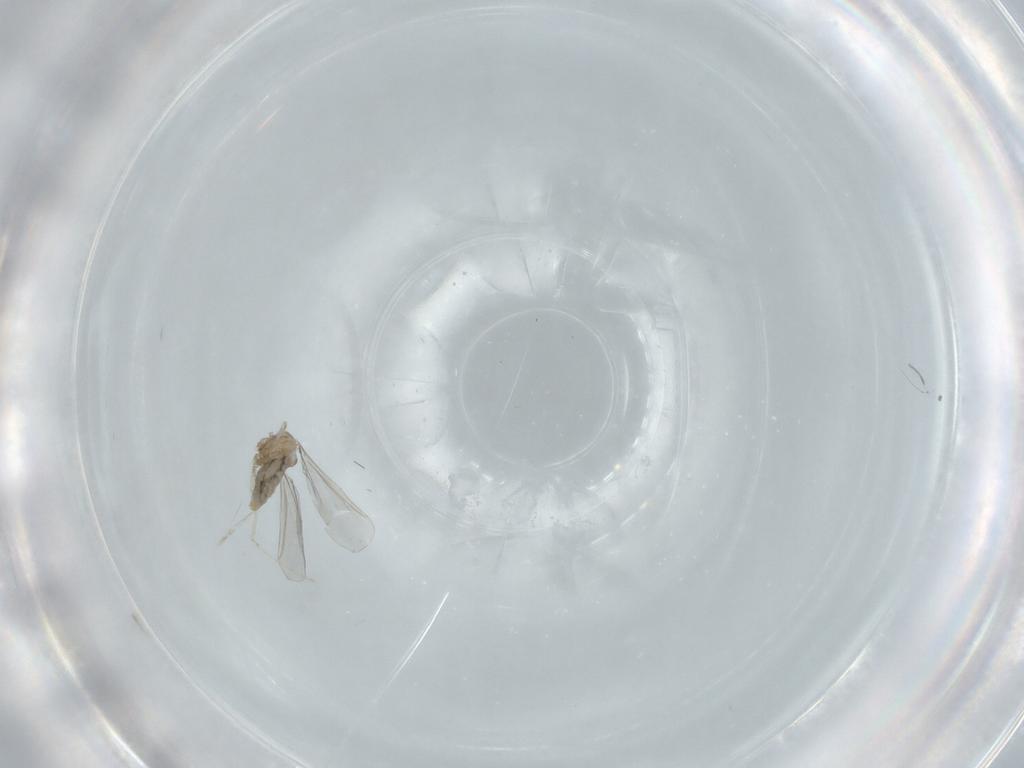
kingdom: Animalia
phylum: Arthropoda
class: Insecta
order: Diptera
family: Cecidomyiidae
